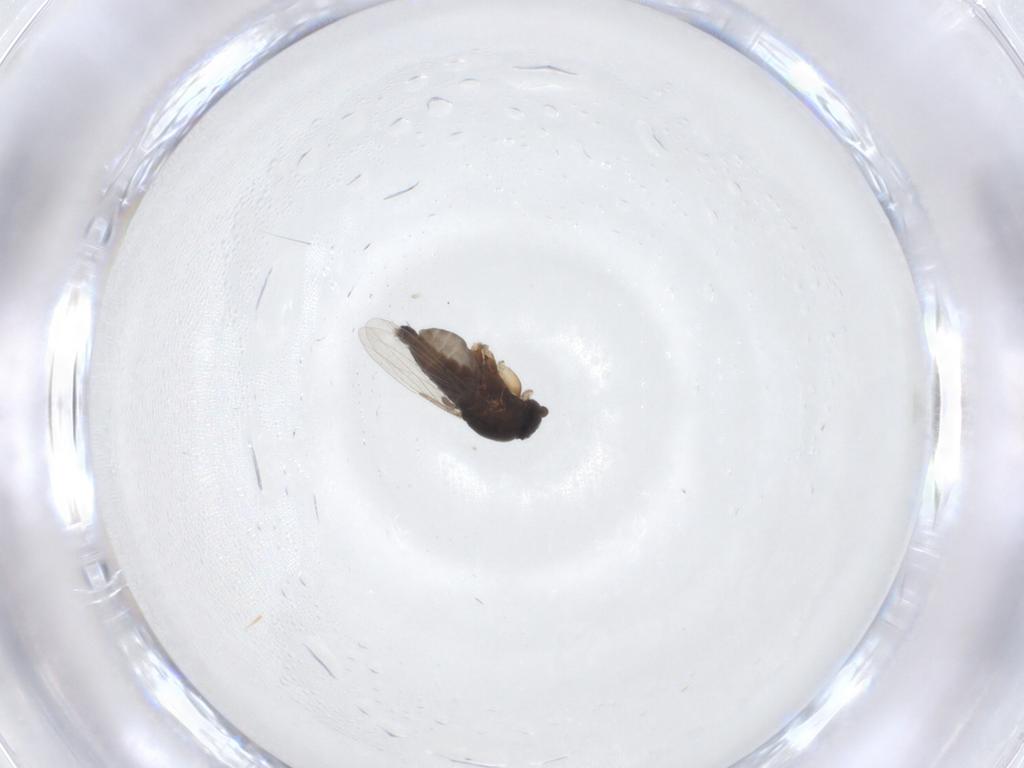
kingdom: Animalia
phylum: Arthropoda
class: Insecta
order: Diptera
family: Phoridae
